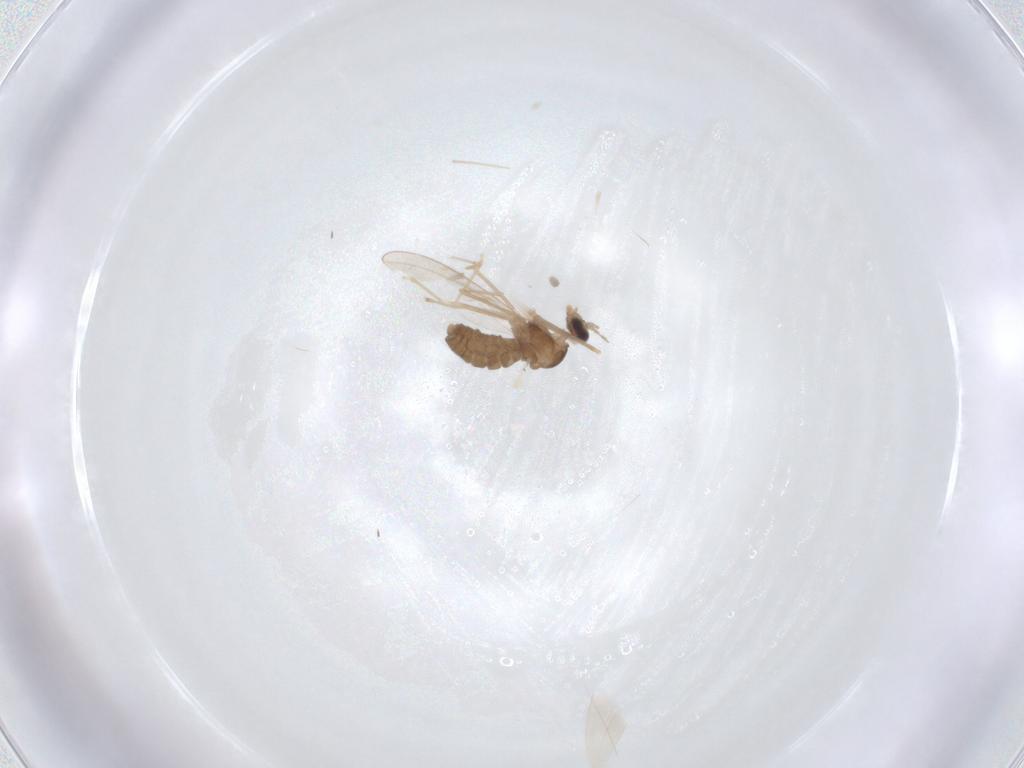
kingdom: Animalia
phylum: Arthropoda
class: Insecta
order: Diptera
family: Cecidomyiidae
